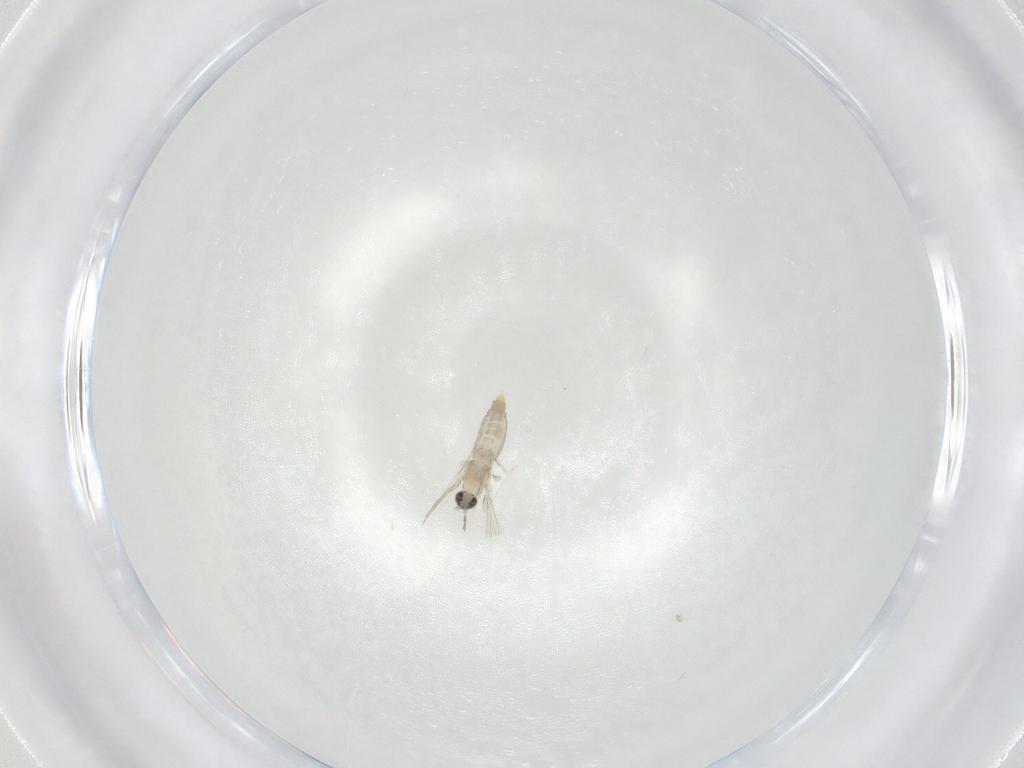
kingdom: Animalia
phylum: Arthropoda
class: Insecta
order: Diptera
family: Cecidomyiidae
